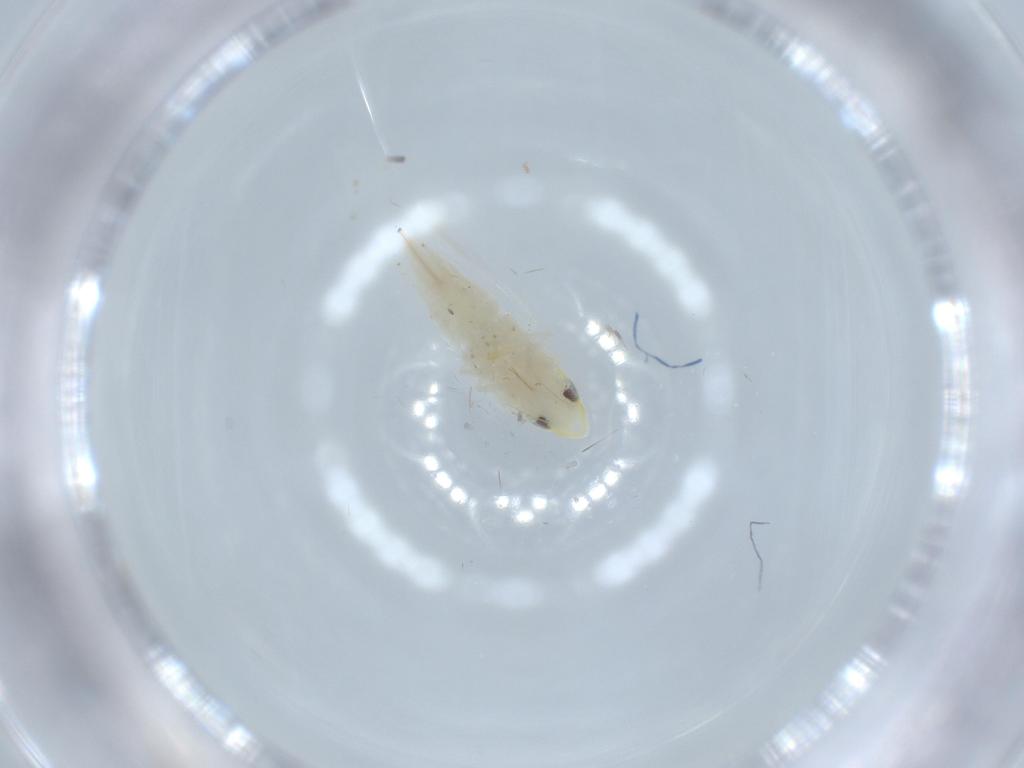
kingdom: Animalia
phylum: Arthropoda
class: Insecta
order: Hemiptera
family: Cicadellidae
